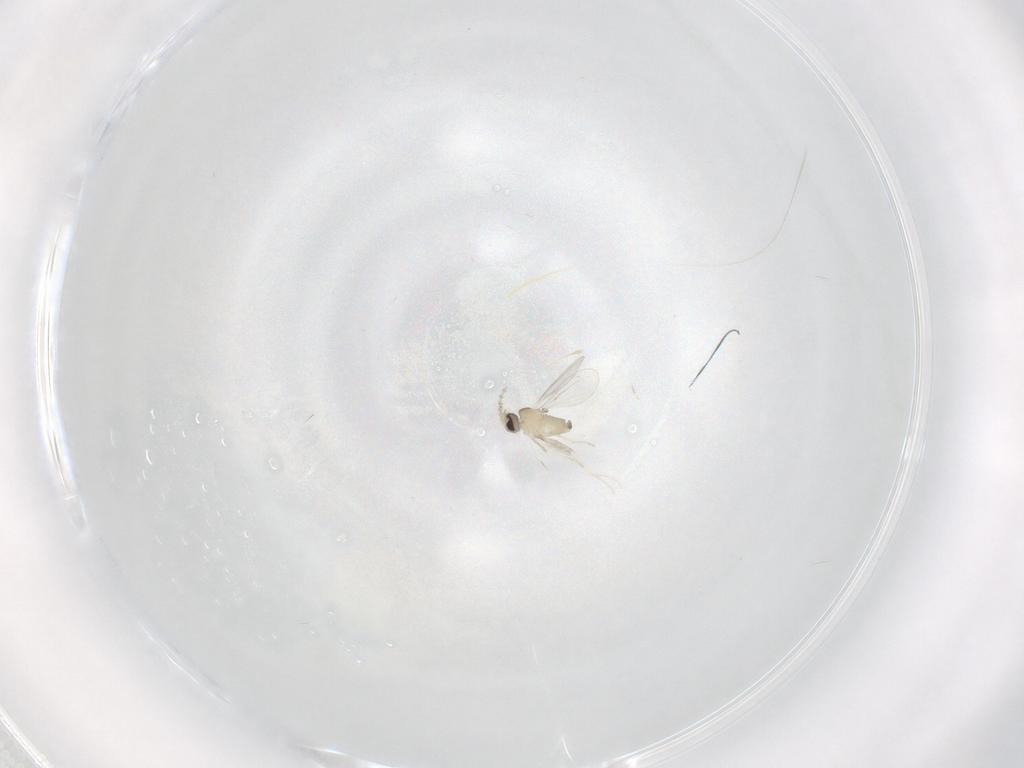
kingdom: Animalia
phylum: Arthropoda
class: Insecta
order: Diptera
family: Cecidomyiidae
